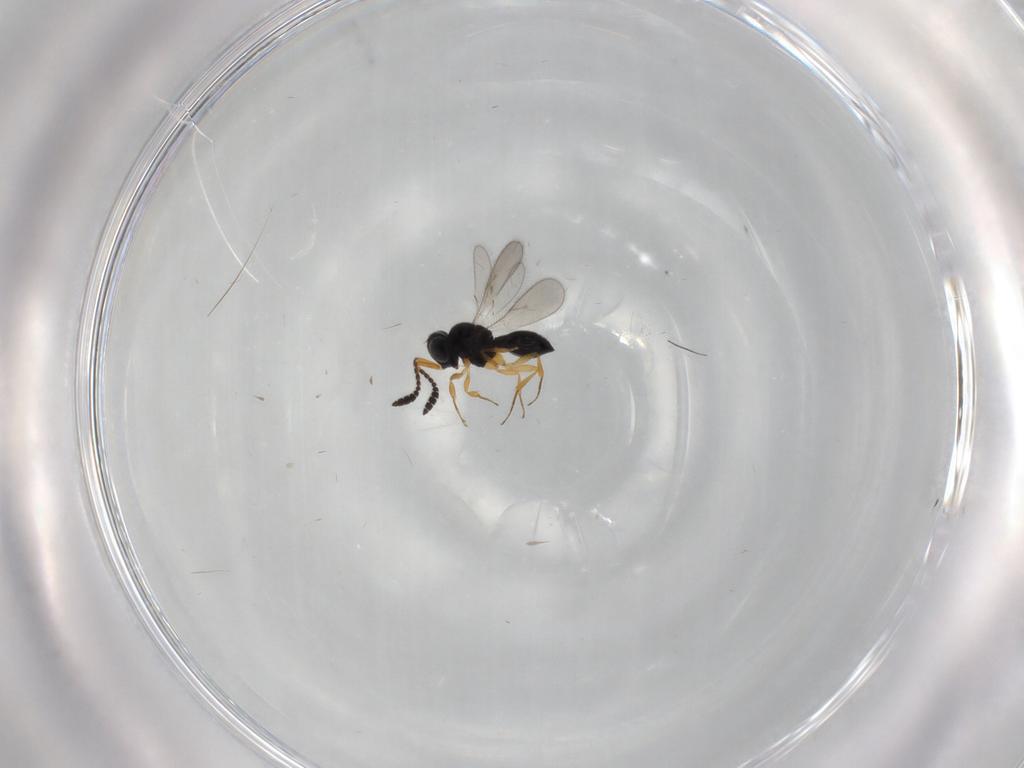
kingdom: Animalia
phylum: Arthropoda
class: Insecta
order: Hymenoptera
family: Scelionidae
